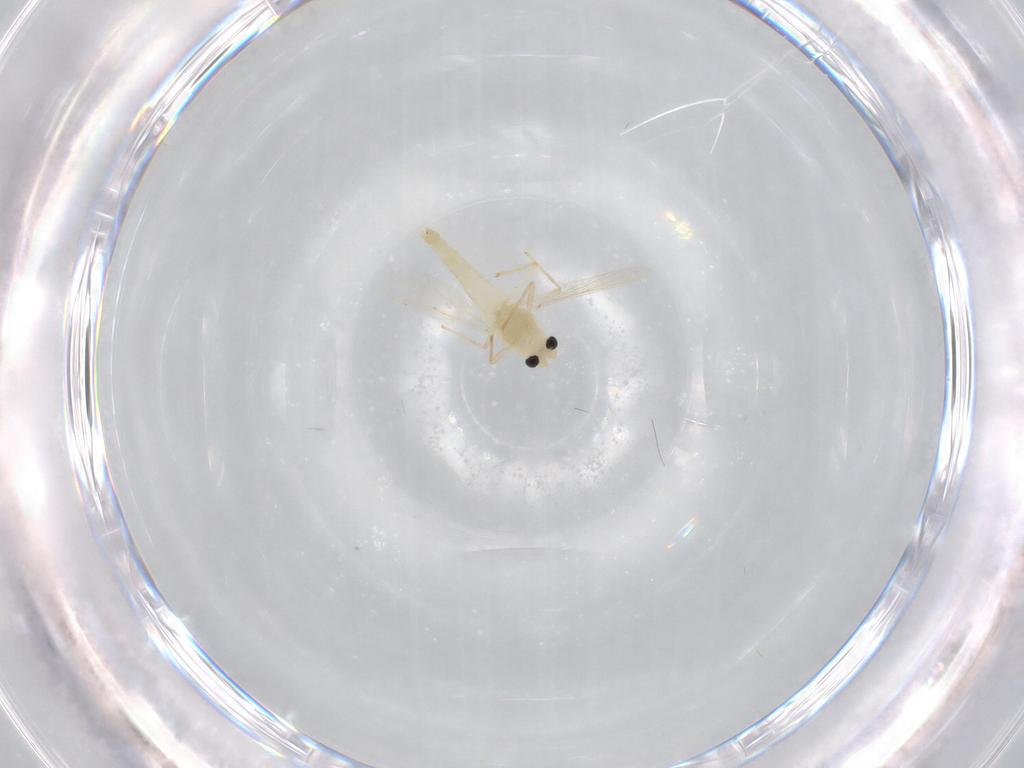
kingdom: Animalia
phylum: Arthropoda
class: Insecta
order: Diptera
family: Chironomidae
